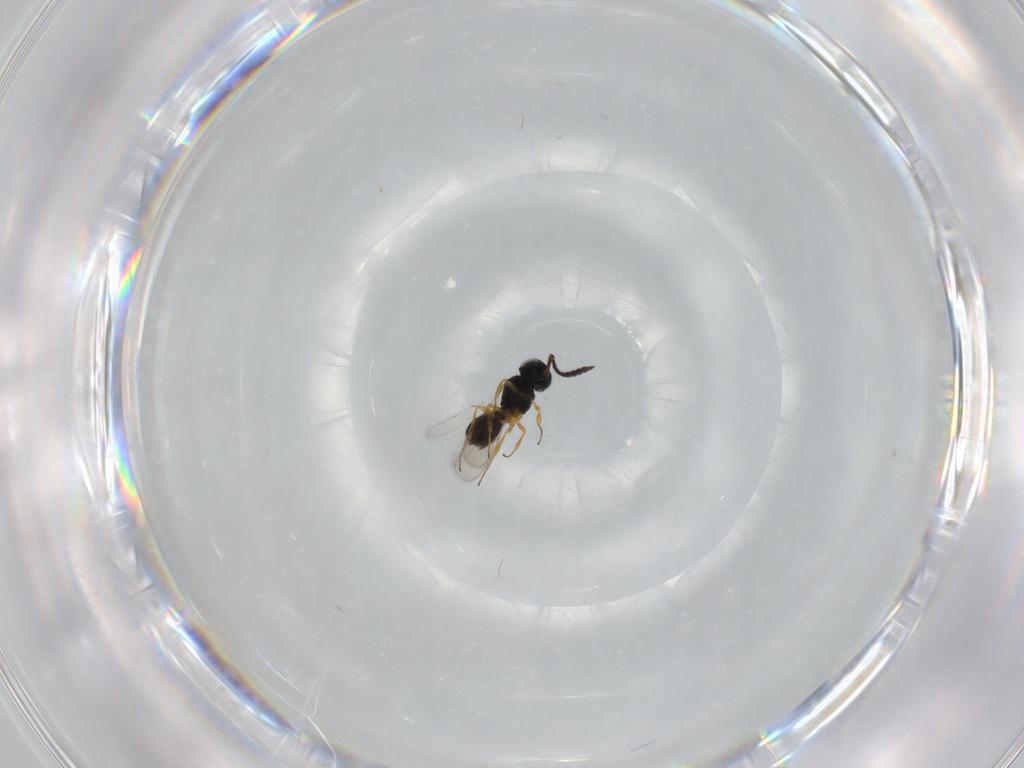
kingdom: Animalia
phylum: Arthropoda
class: Insecta
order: Hymenoptera
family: Scelionidae
